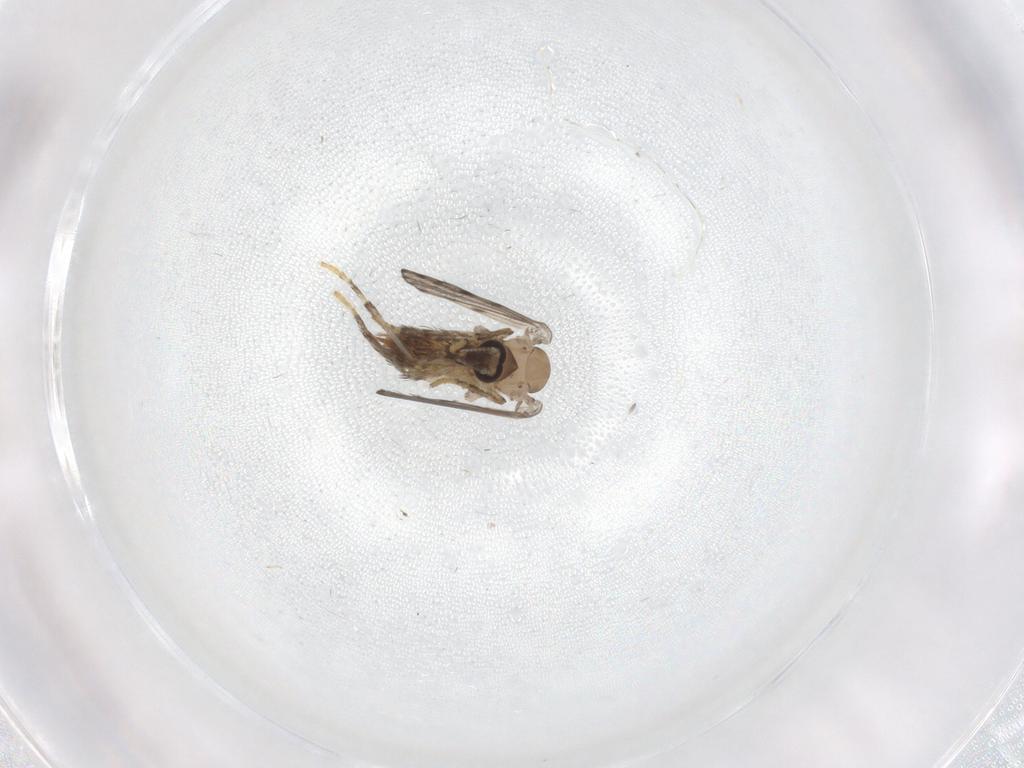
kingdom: Animalia
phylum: Arthropoda
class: Insecta
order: Diptera
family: Psychodidae
